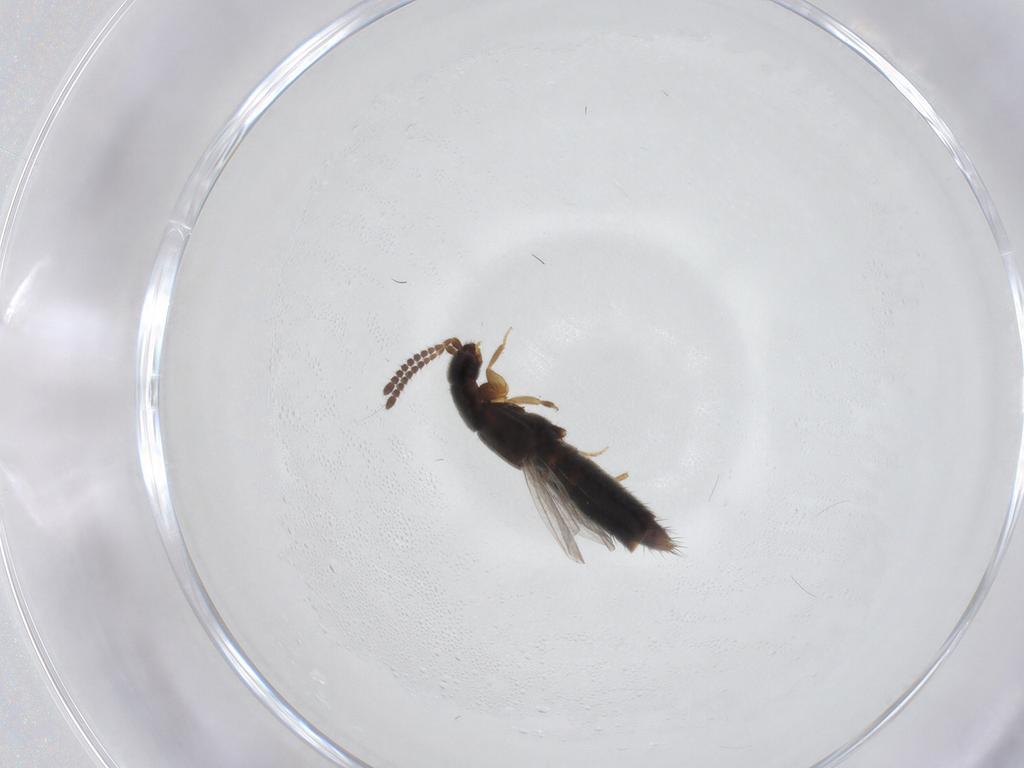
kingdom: Animalia
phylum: Arthropoda
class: Insecta
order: Coleoptera
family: Staphylinidae
